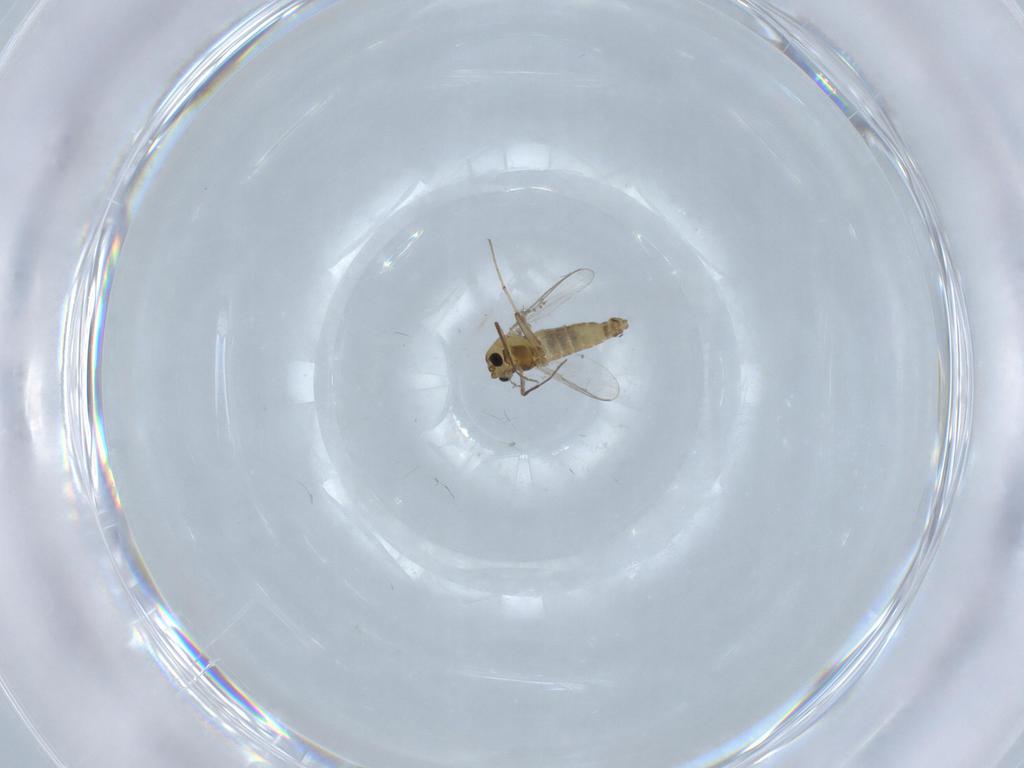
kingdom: Animalia
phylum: Arthropoda
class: Insecta
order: Diptera
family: Chironomidae
